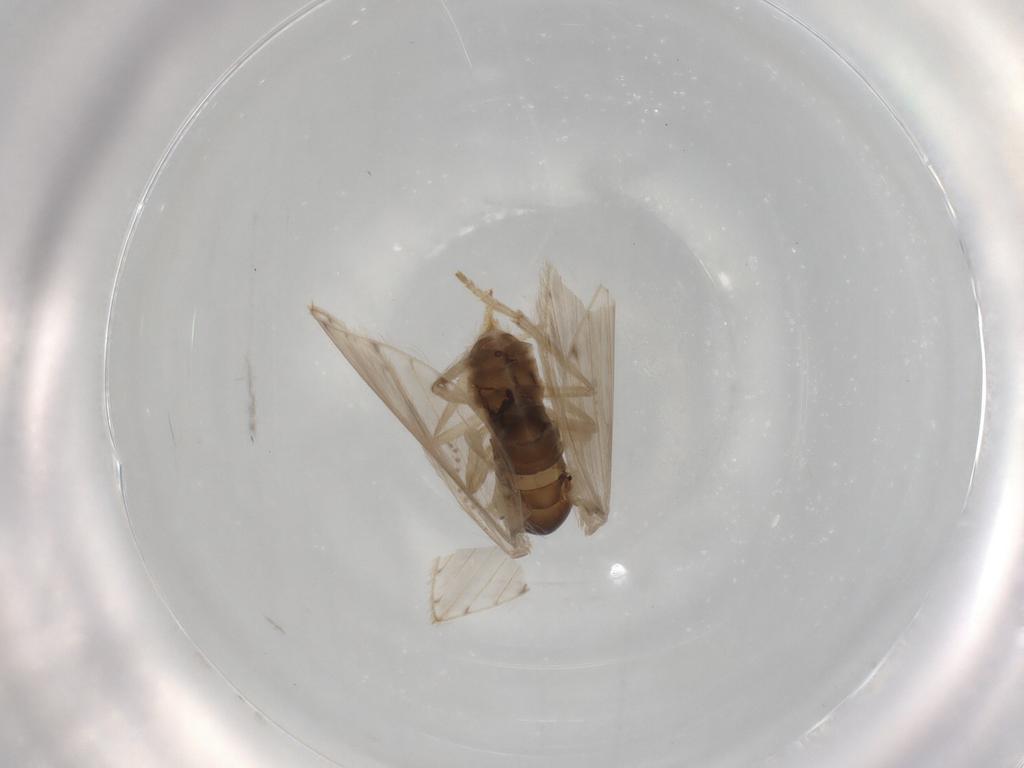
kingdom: Animalia
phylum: Arthropoda
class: Insecta
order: Diptera
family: Calliphoridae
